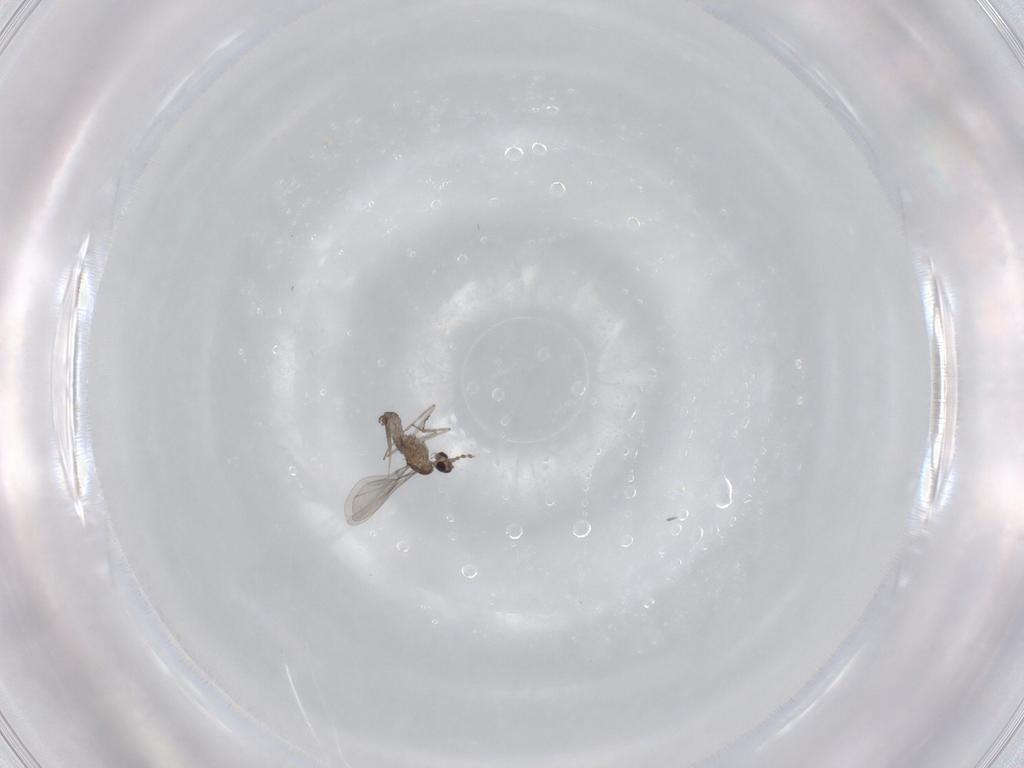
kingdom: Animalia
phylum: Arthropoda
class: Insecta
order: Diptera
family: Cecidomyiidae
